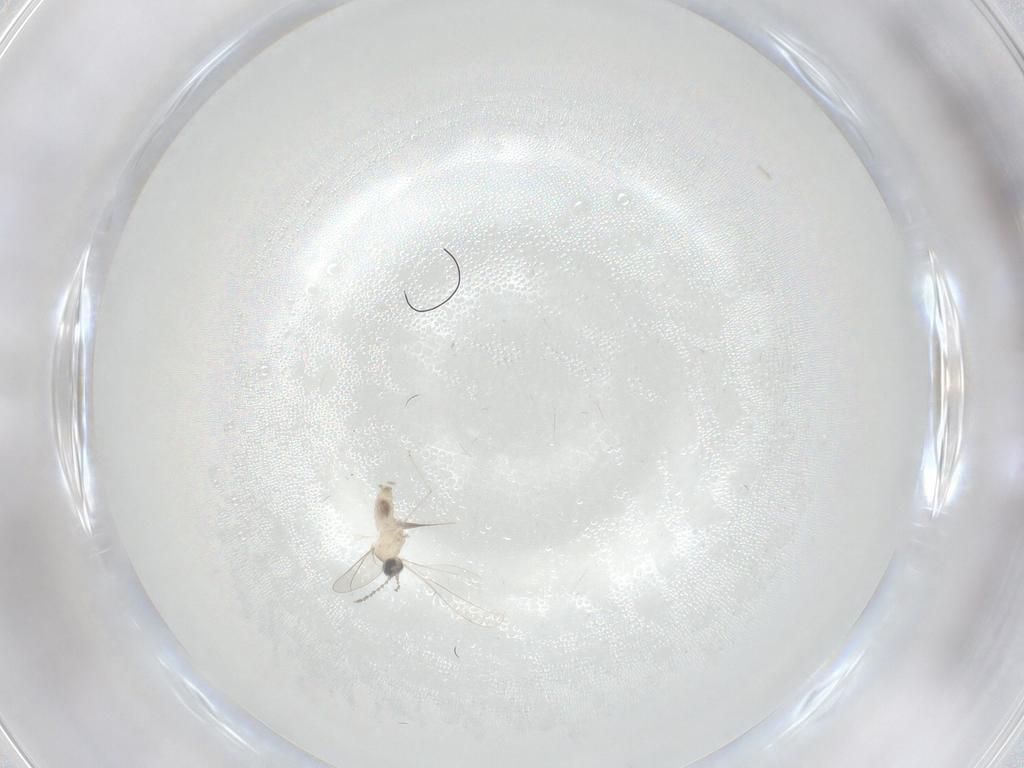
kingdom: Animalia
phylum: Arthropoda
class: Insecta
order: Diptera
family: Cecidomyiidae
